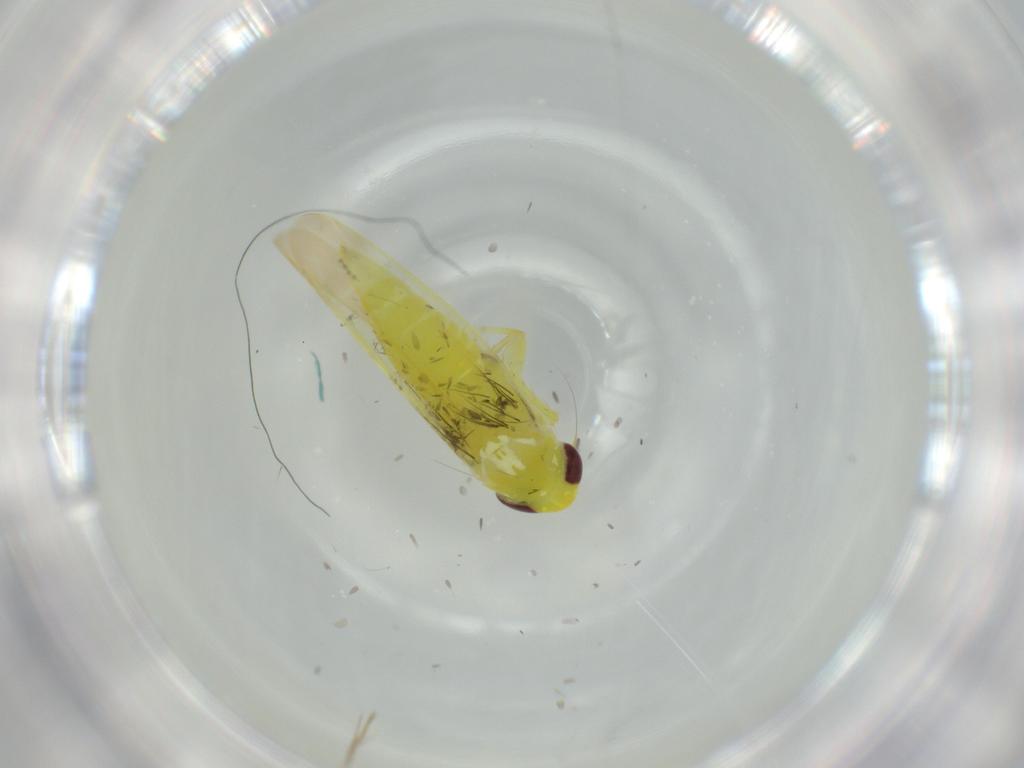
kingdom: Animalia
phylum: Arthropoda
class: Insecta
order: Hemiptera
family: Cicadellidae
